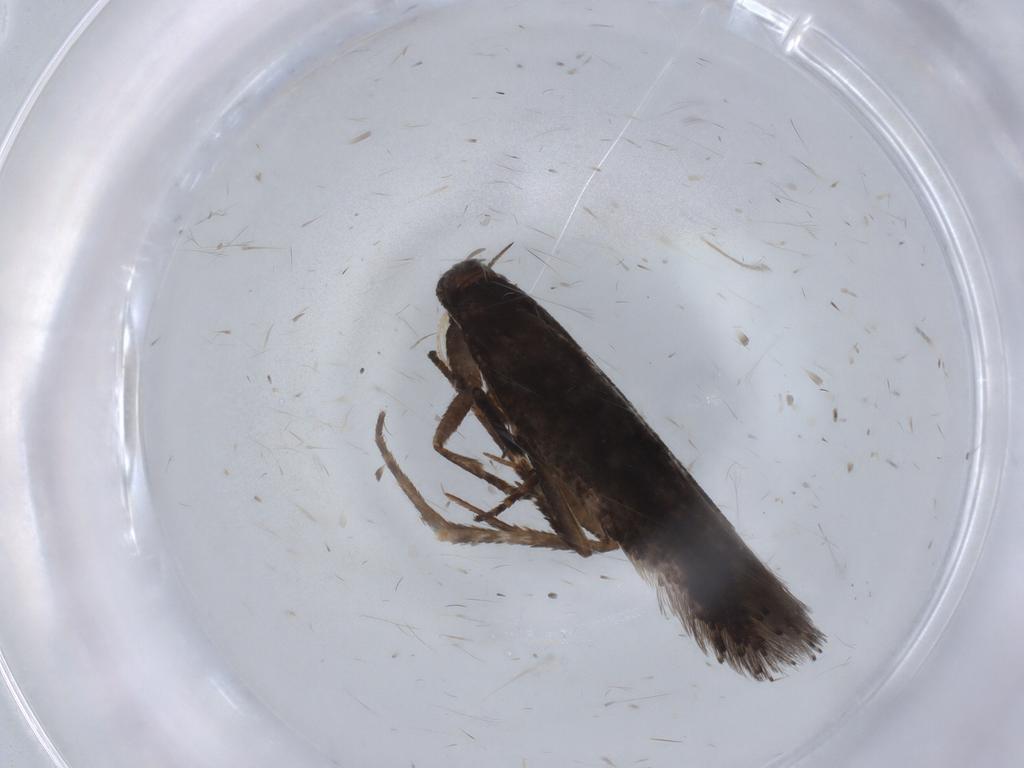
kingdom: Animalia
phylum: Arthropoda
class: Insecta
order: Lepidoptera
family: Gelechiidae
